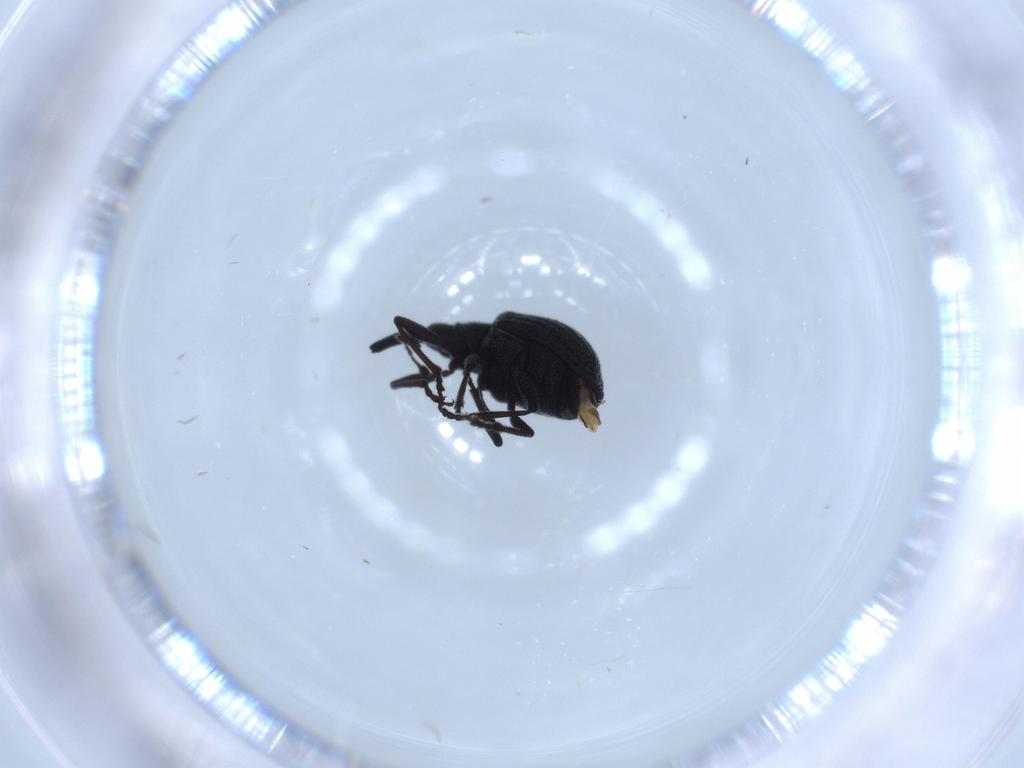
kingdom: Animalia
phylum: Arthropoda
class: Insecta
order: Coleoptera
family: Brentidae
